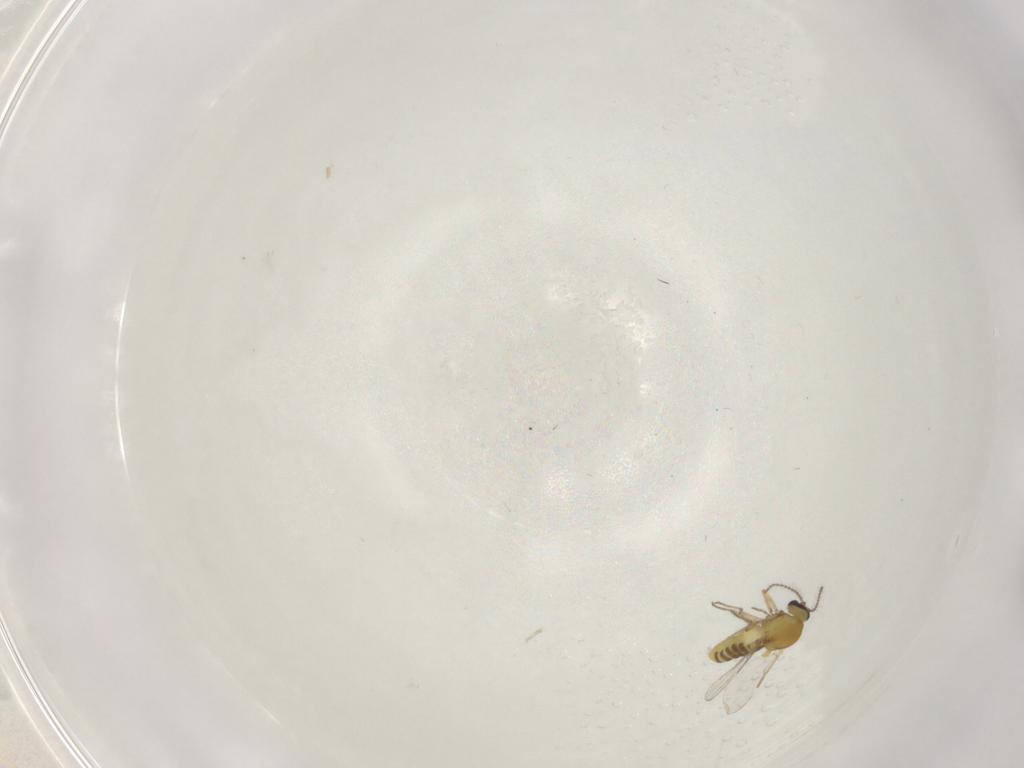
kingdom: Animalia
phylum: Arthropoda
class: Insecta
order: Diptera
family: Ceratopogonidae
